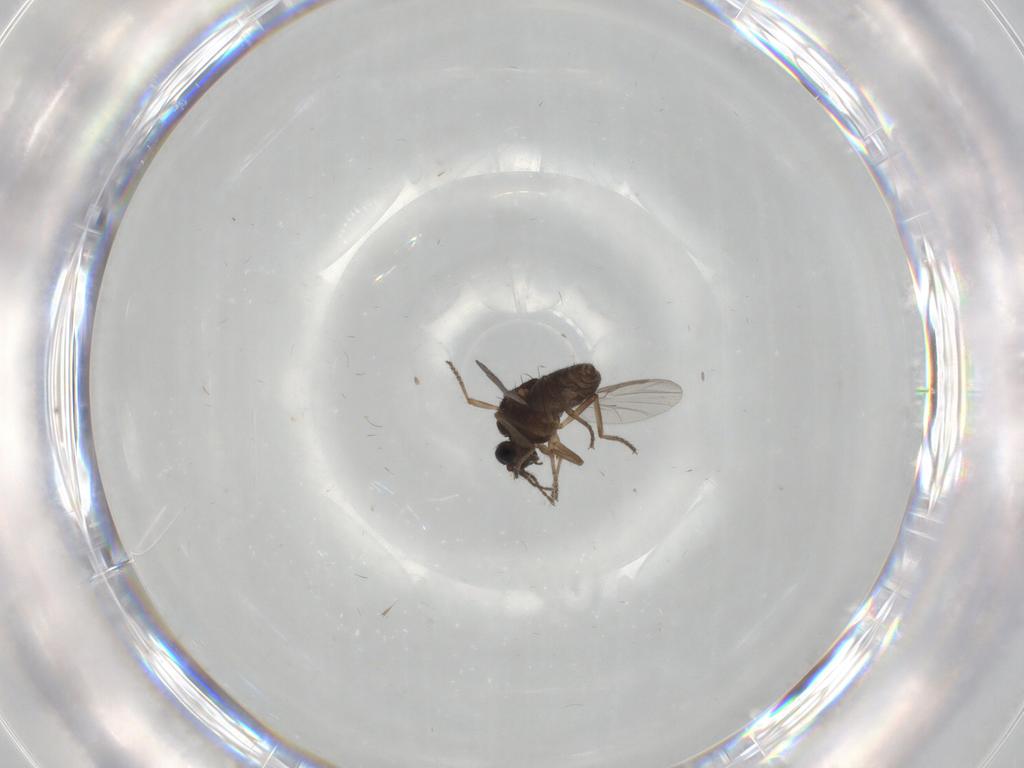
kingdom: Animalia
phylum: Arthropoda
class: Insecta
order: Diptera
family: Ceratopogonidae
